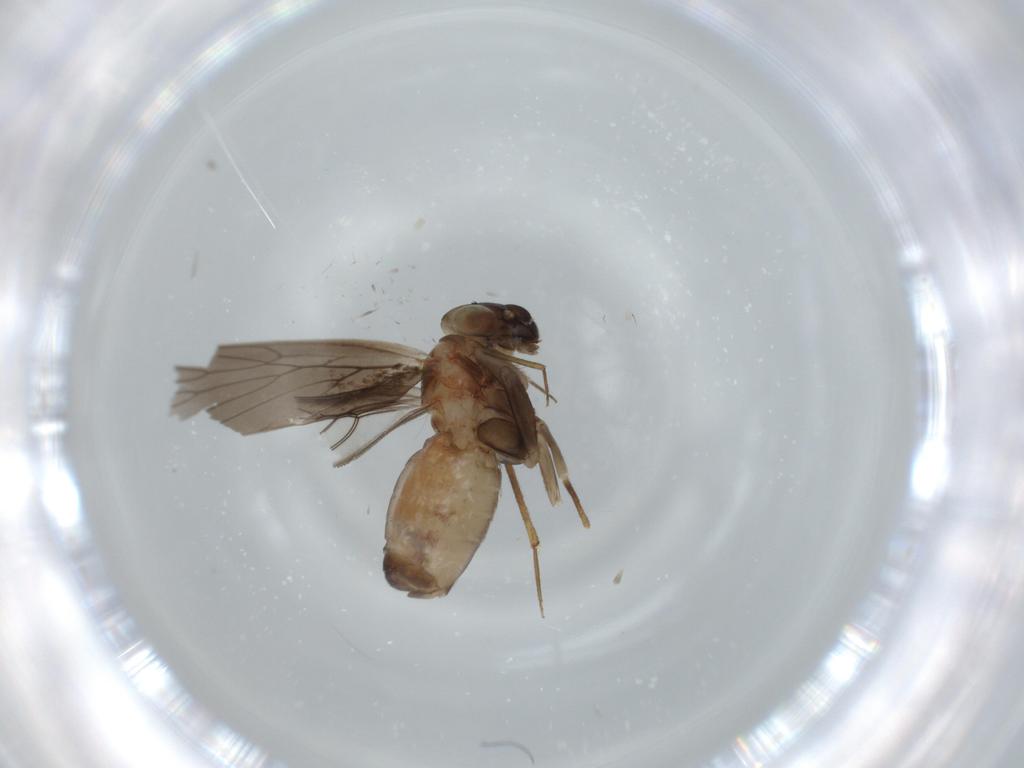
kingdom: Animalia
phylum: Arthropoda
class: Insecta
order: Psocodea
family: Lepidopsocidae
